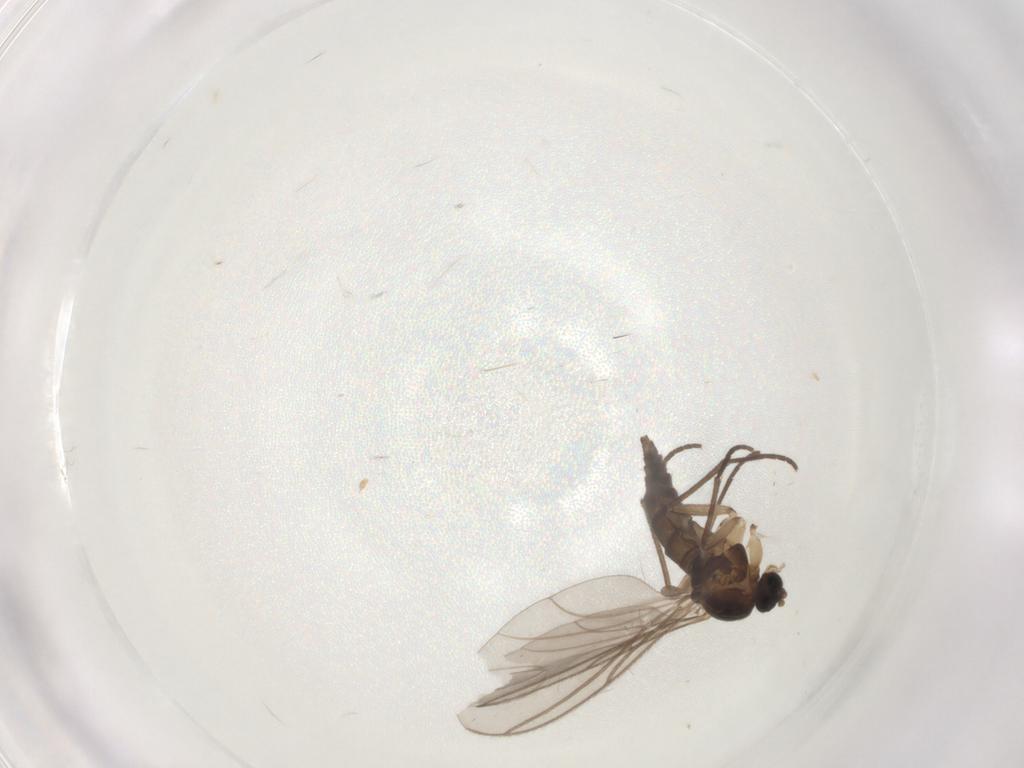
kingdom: Animalia
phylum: Arthropoda
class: Insecta
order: Diptera
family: Sciaridae
